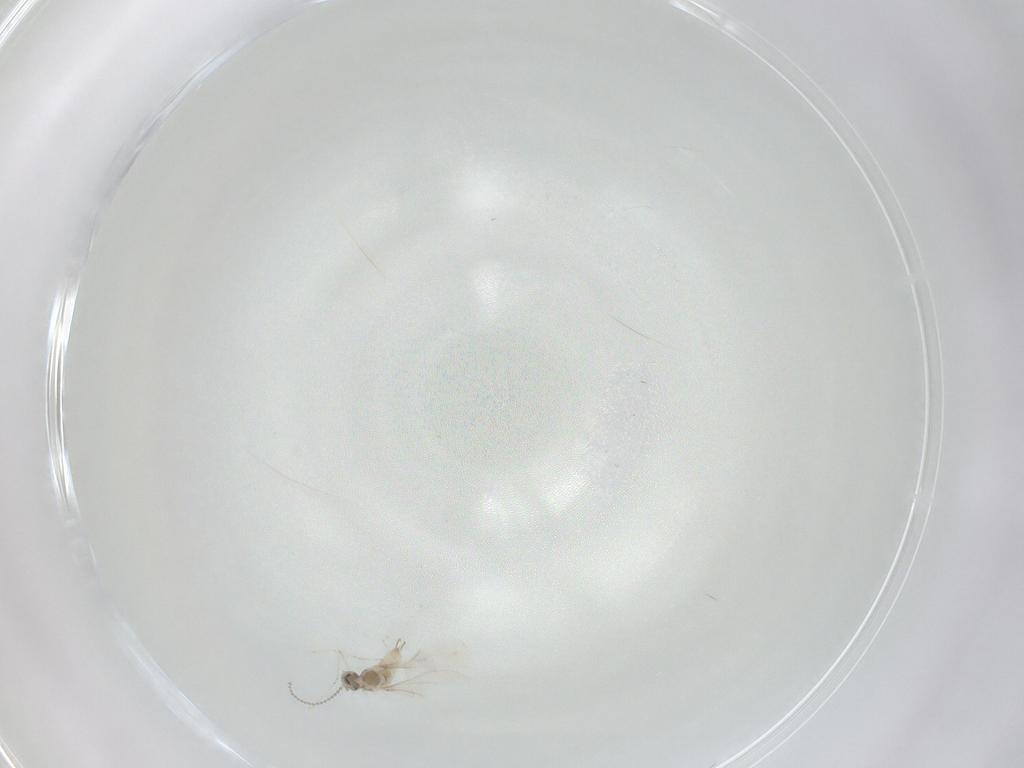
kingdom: Animalia
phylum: Arthropoda
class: Insecta
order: Diptera
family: Cecidomyiidae
